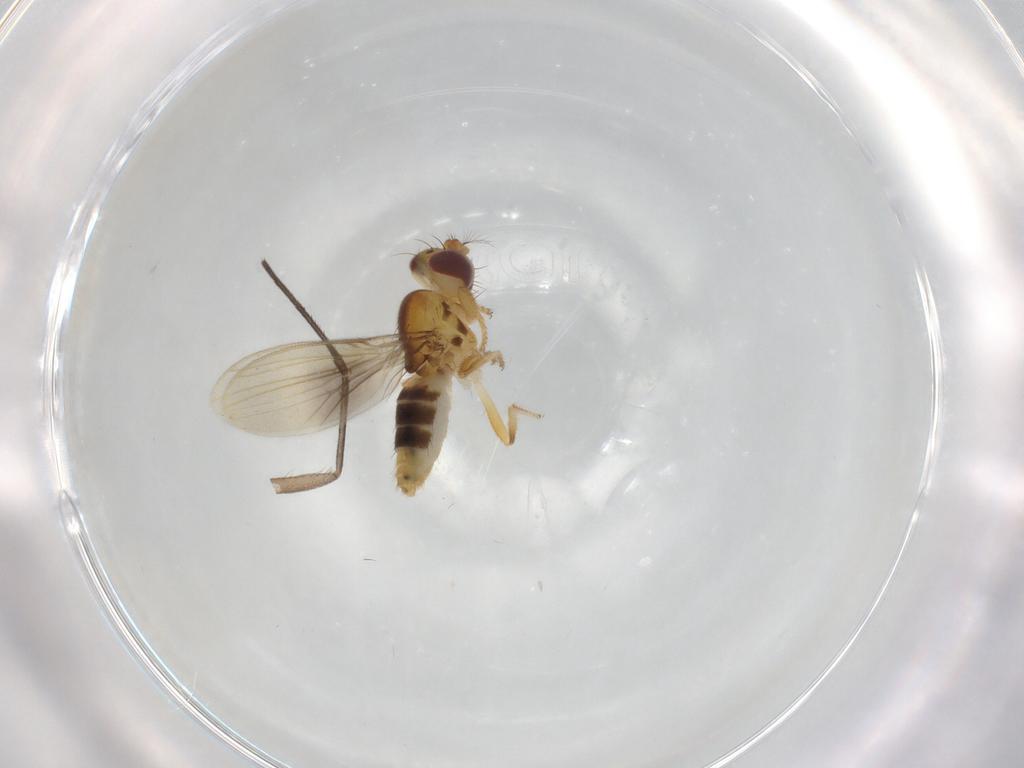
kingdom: Animalia
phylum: Arthropoda
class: Insecta
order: Diptera
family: Periscelididae
